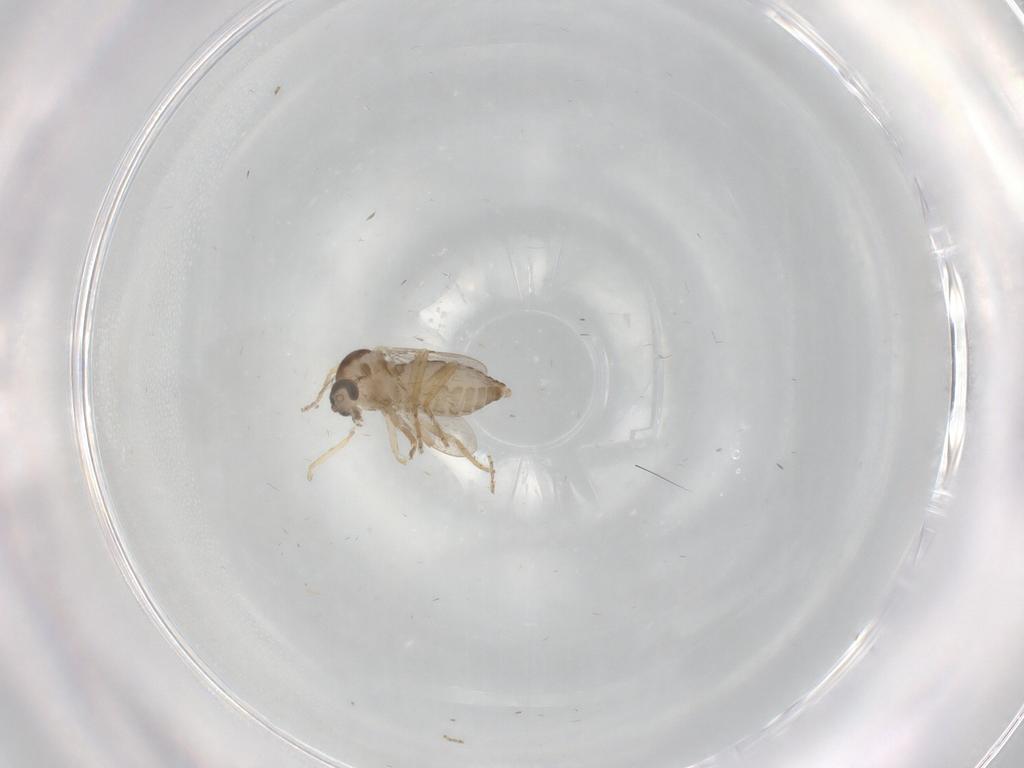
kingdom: Animalia
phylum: Arthropoda
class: Insecta
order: Diptera
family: Ceratopogonidae
